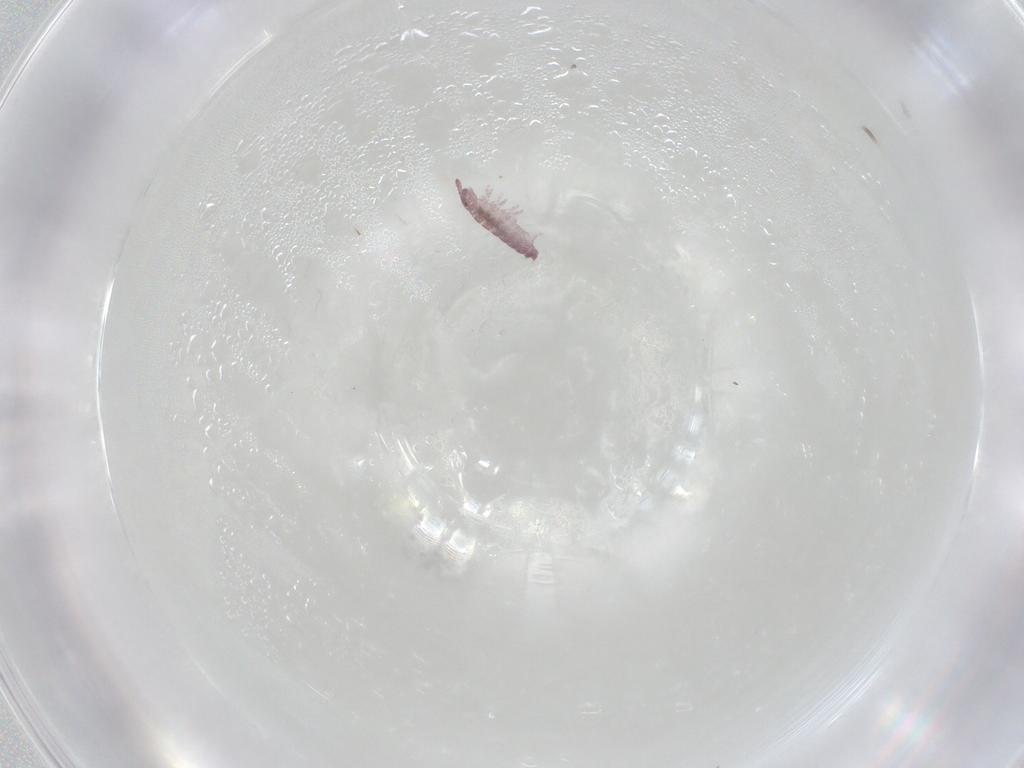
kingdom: Animalia
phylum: Arthropoda
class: Collembola
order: Poduromorpha
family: Hypogastruridae
